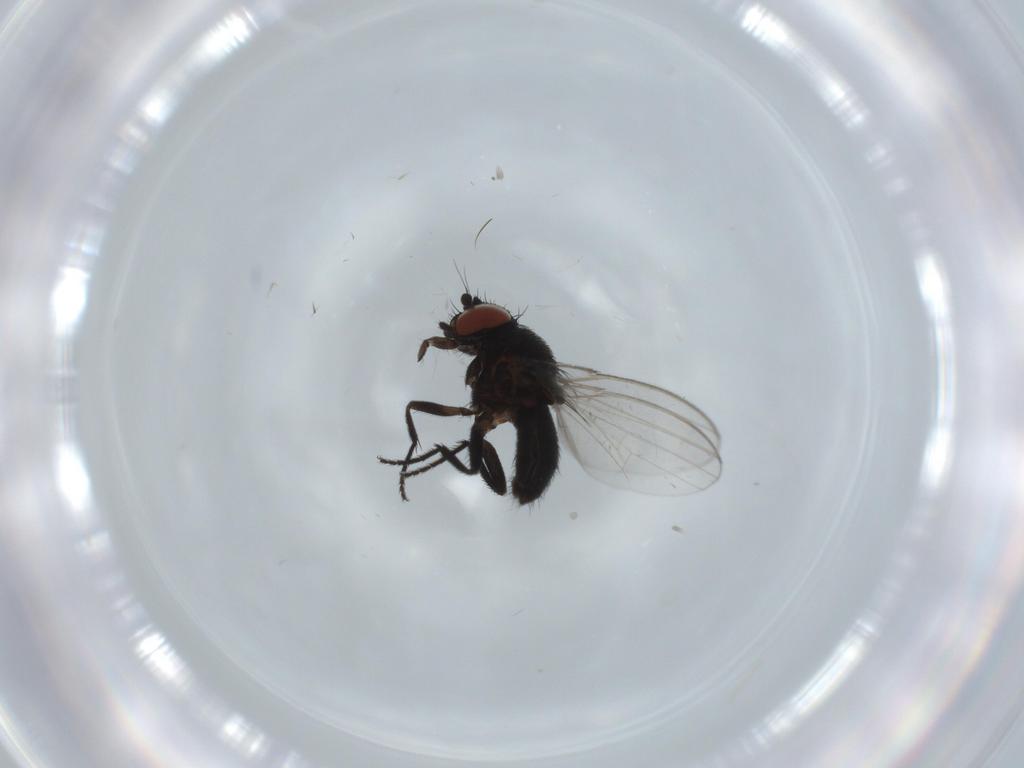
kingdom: Animalia
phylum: Arthropoda
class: Insecta
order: Diptera
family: Milichiidae
